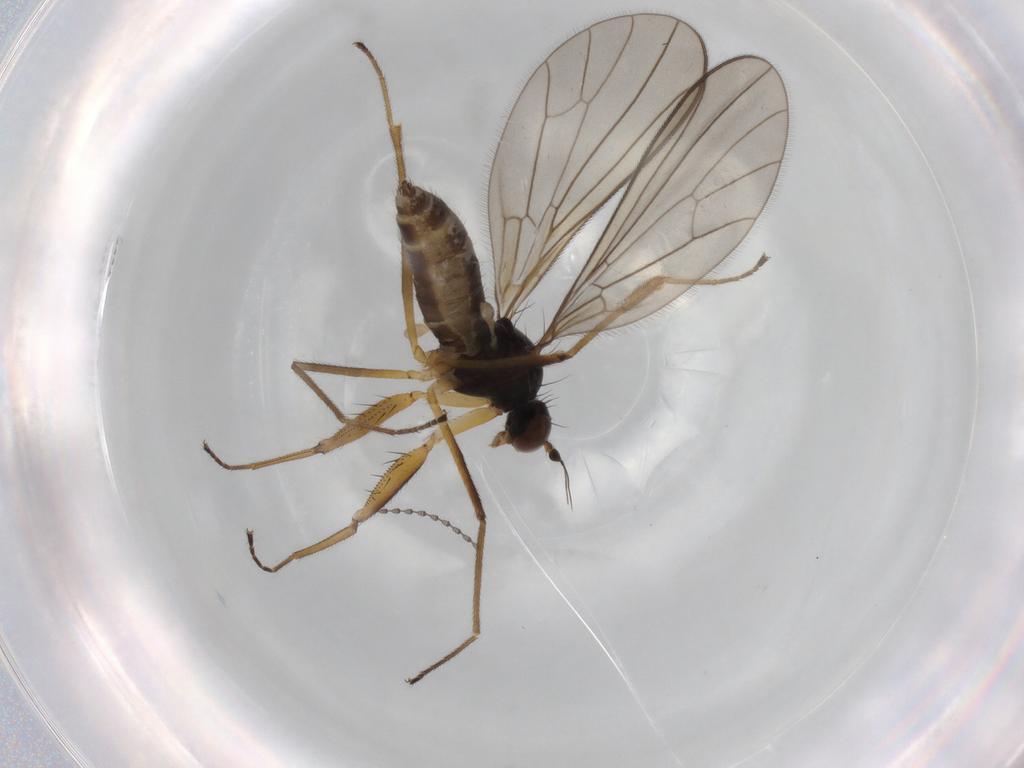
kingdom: Animalia
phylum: Arthropoda
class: Insecta
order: Diptera
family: Empididae
